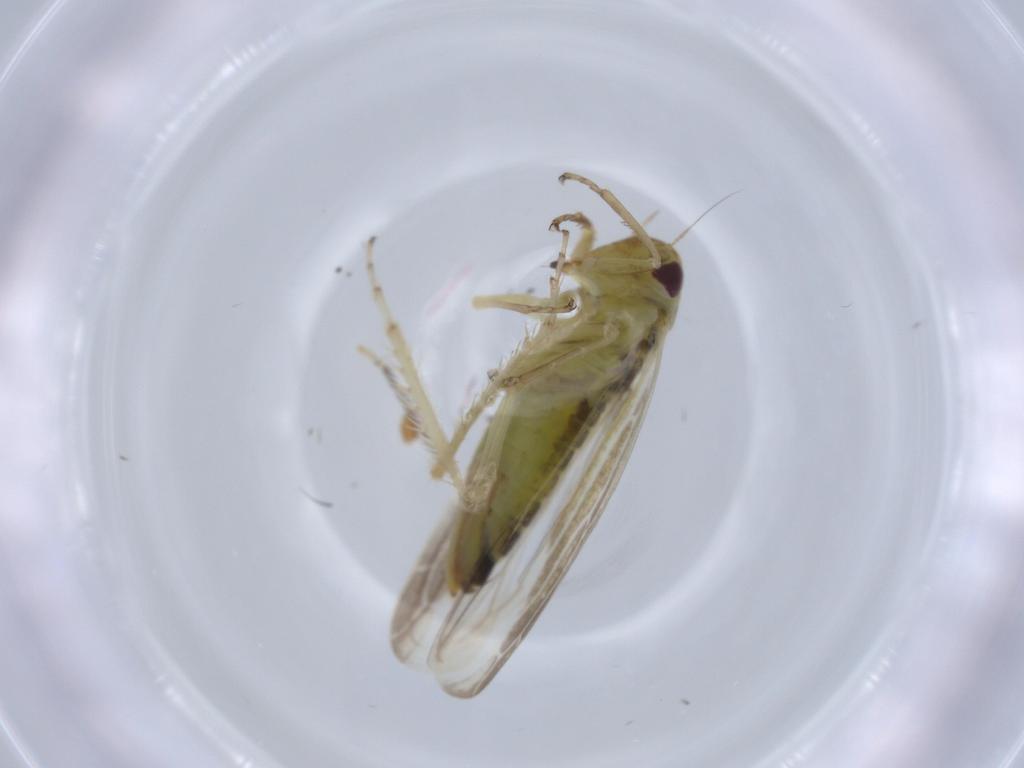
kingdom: Animalia
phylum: Arthropoda
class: Insecta
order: Hemiptera
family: Cicadellidae
